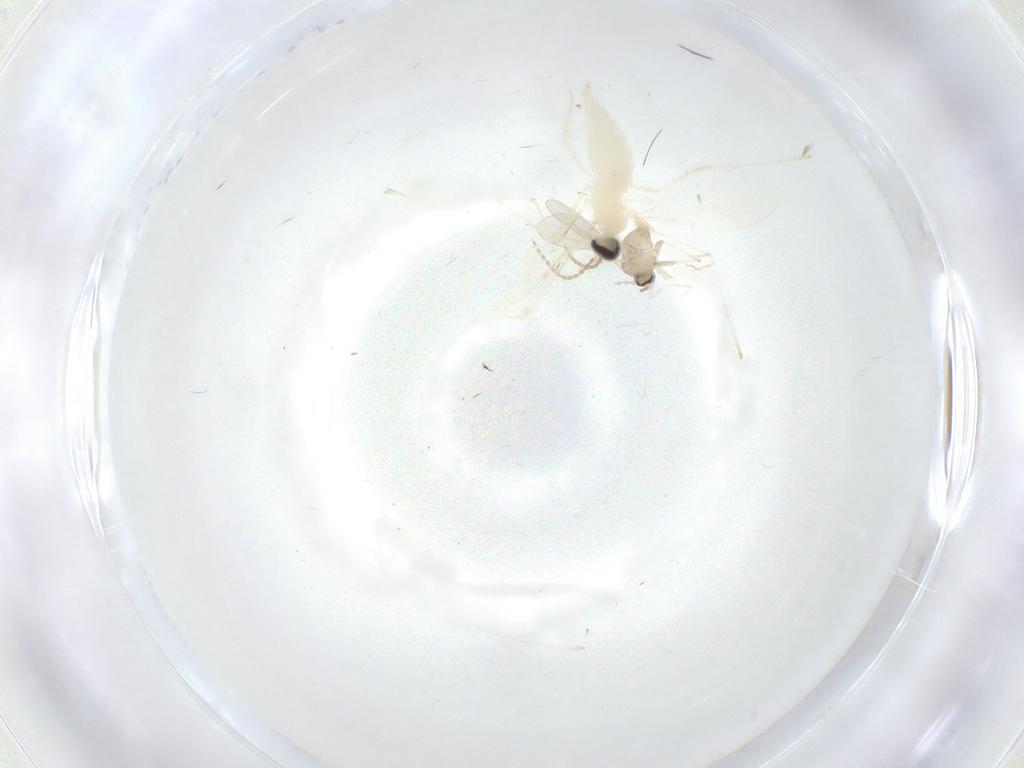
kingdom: Animalia
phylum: Arthropoda
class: Insecta
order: Diptera
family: Cecidomyiidae
